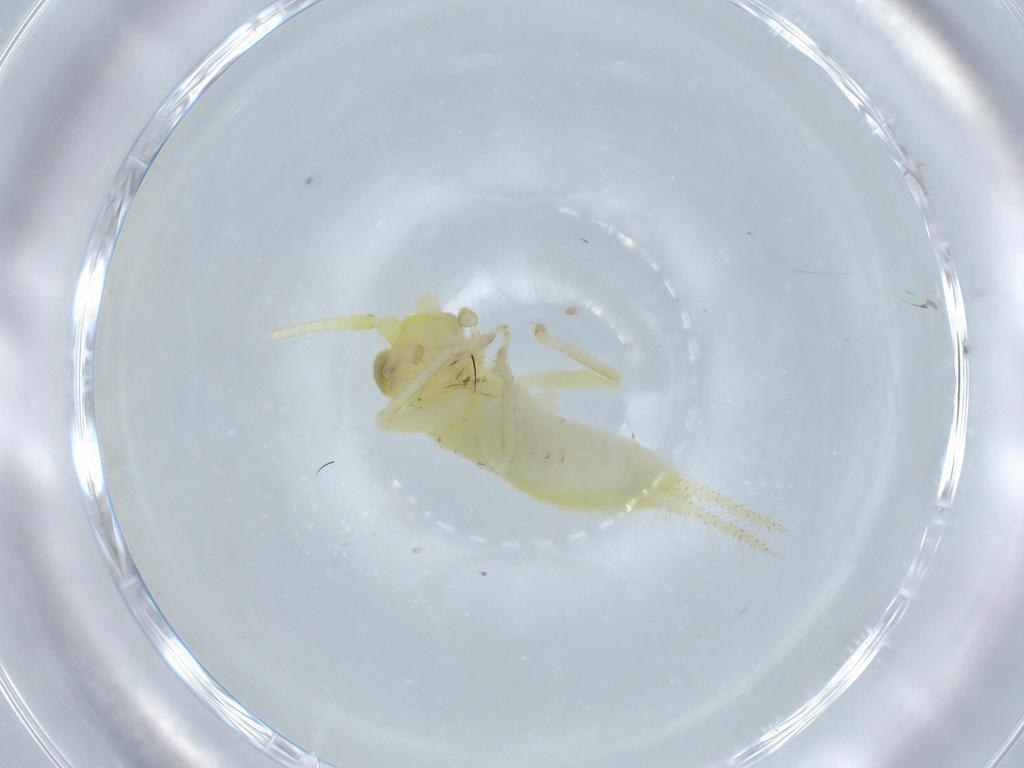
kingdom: Animalia
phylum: Arthropoda
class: Insecta
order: Orthoptera
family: Trigonidiidae
